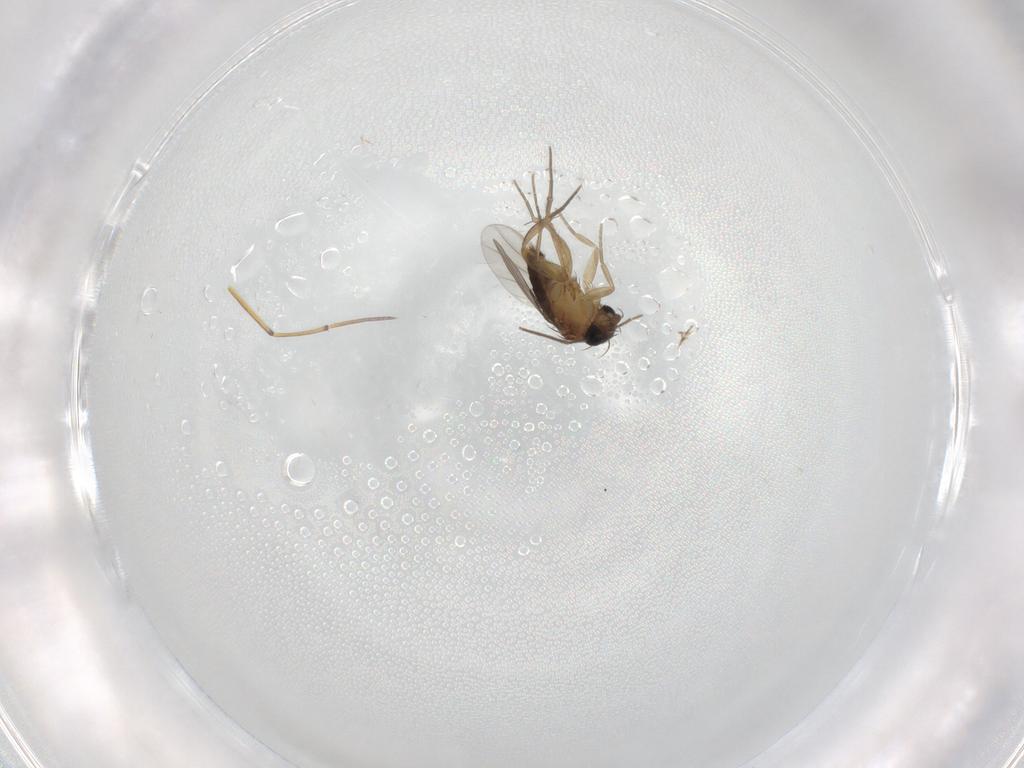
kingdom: Animalia
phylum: Arthropoda
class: Insecta
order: Diptera
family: Phoridae
